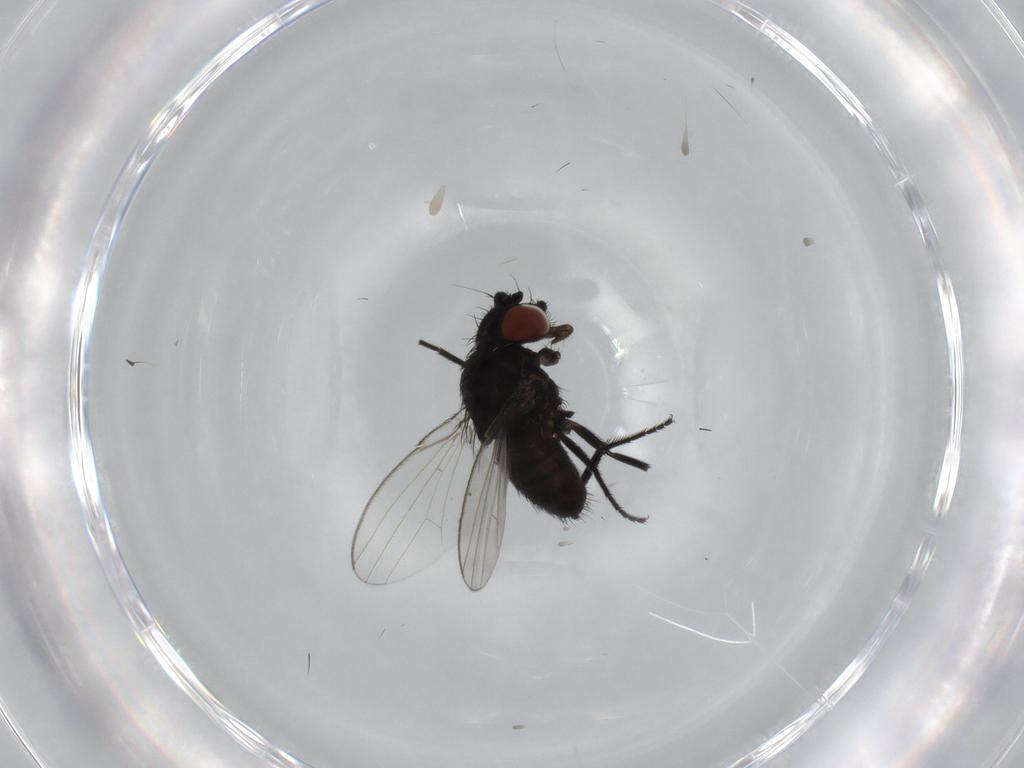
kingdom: Animalia
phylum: Arthropoda
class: Insecta
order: Diptera
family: Milichiidae
